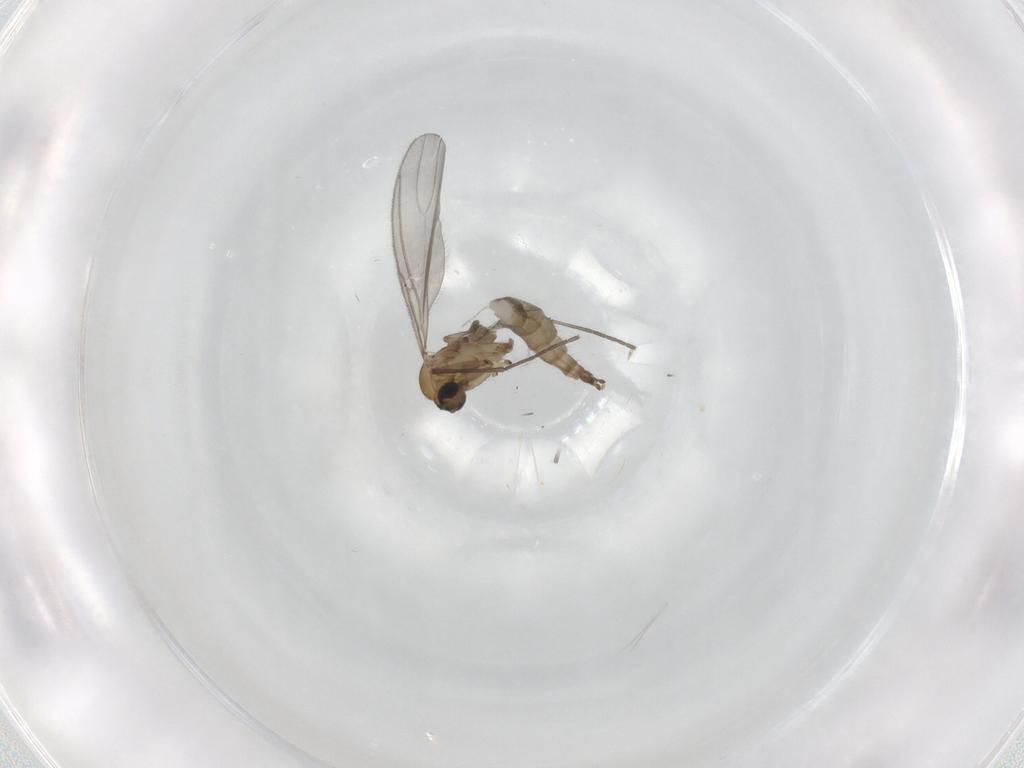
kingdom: Animalia
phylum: Arthropoda
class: Insecta
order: Diptera
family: Sciaridae
